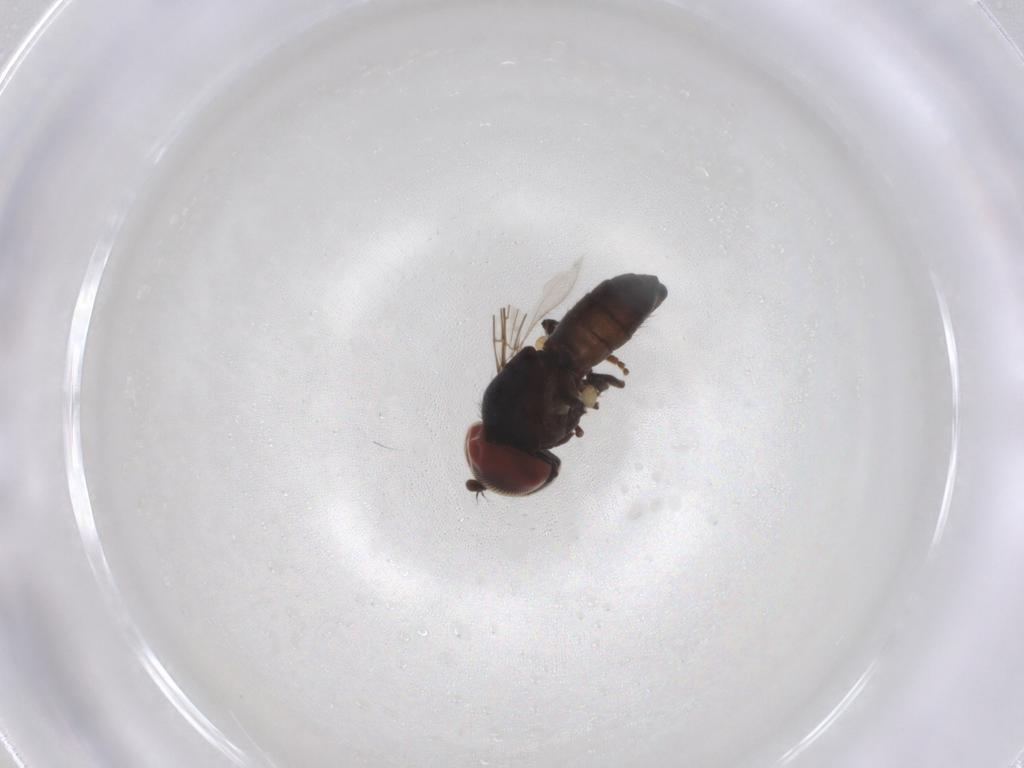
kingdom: Animalia
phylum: Arthropoda
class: Insecta
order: Diptera
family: Pipunculidae
